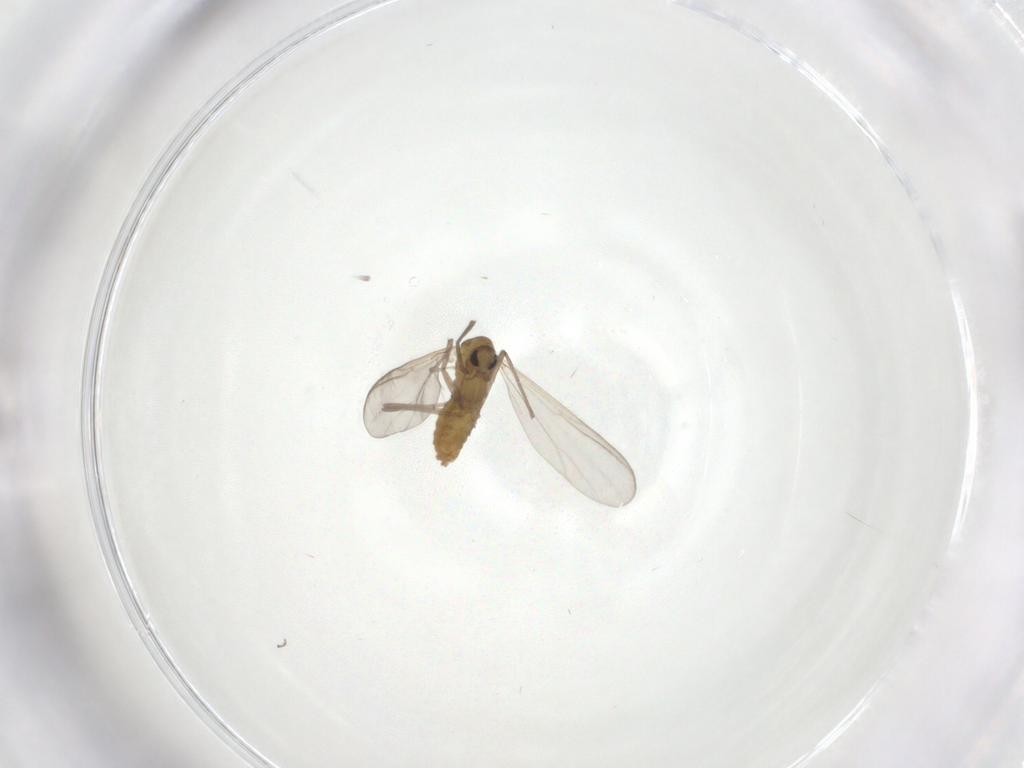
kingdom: Animalia
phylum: Arthropoda
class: Insecta
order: Diptera
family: Chironomidae
